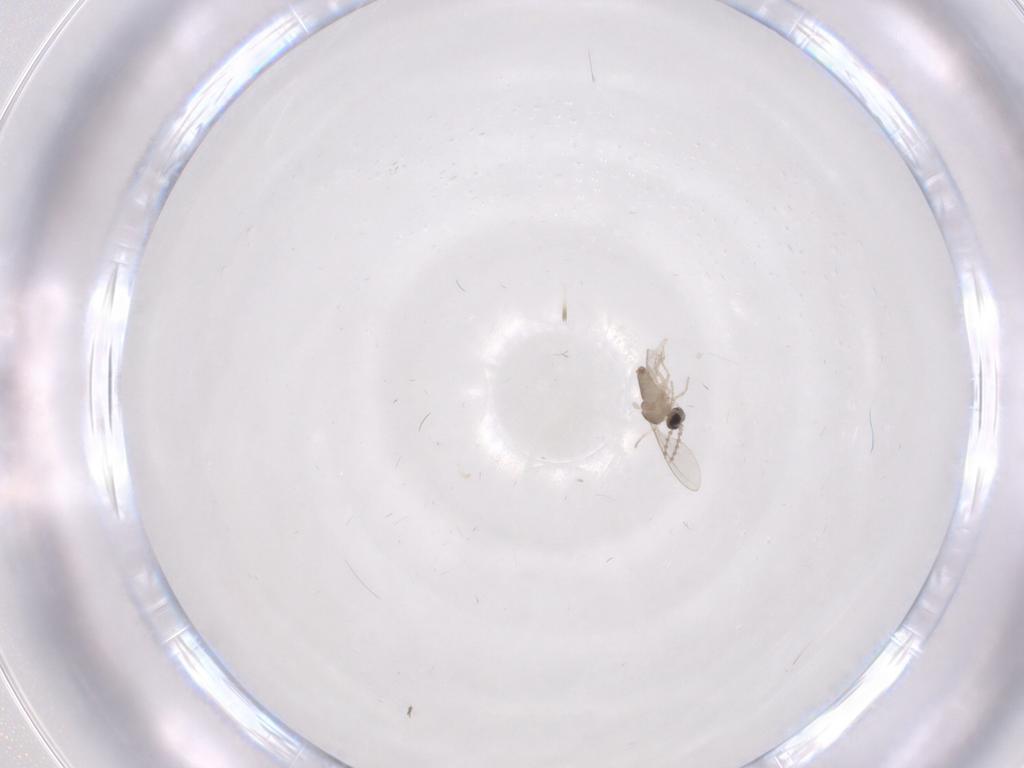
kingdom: Animalia
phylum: Arthropoda
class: Insecta
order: Diptera
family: Cecidomyiidae
